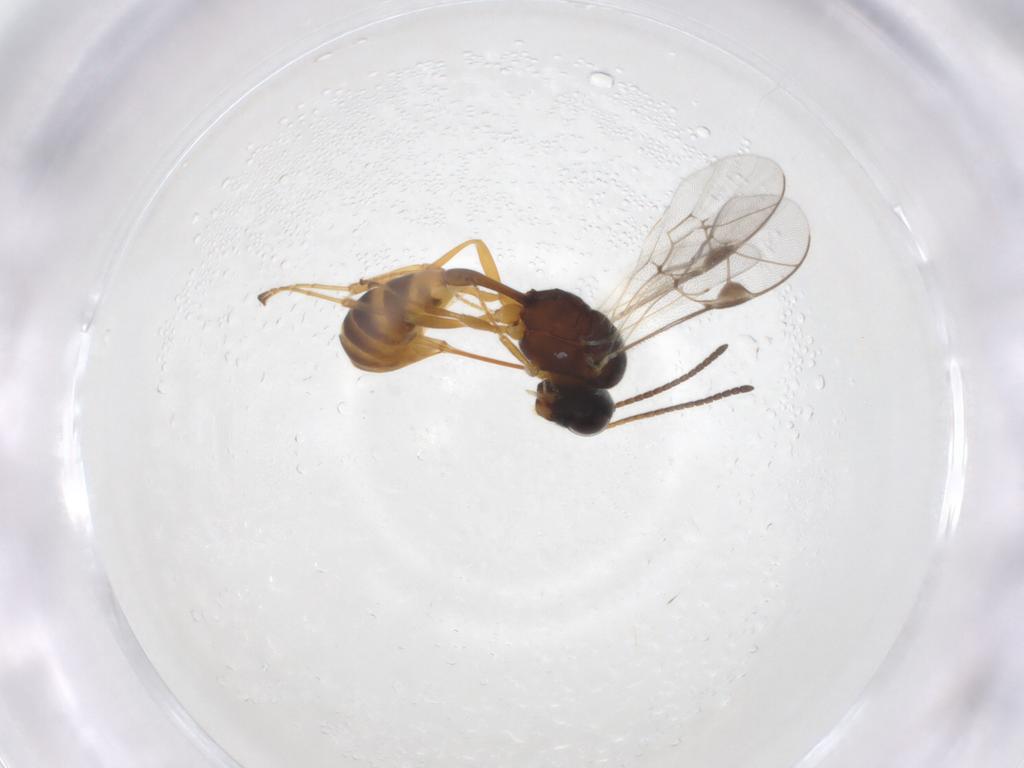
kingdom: Animalia
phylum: Arthropoda
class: Insecta
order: Hymenoptera
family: Ichneumonidae
